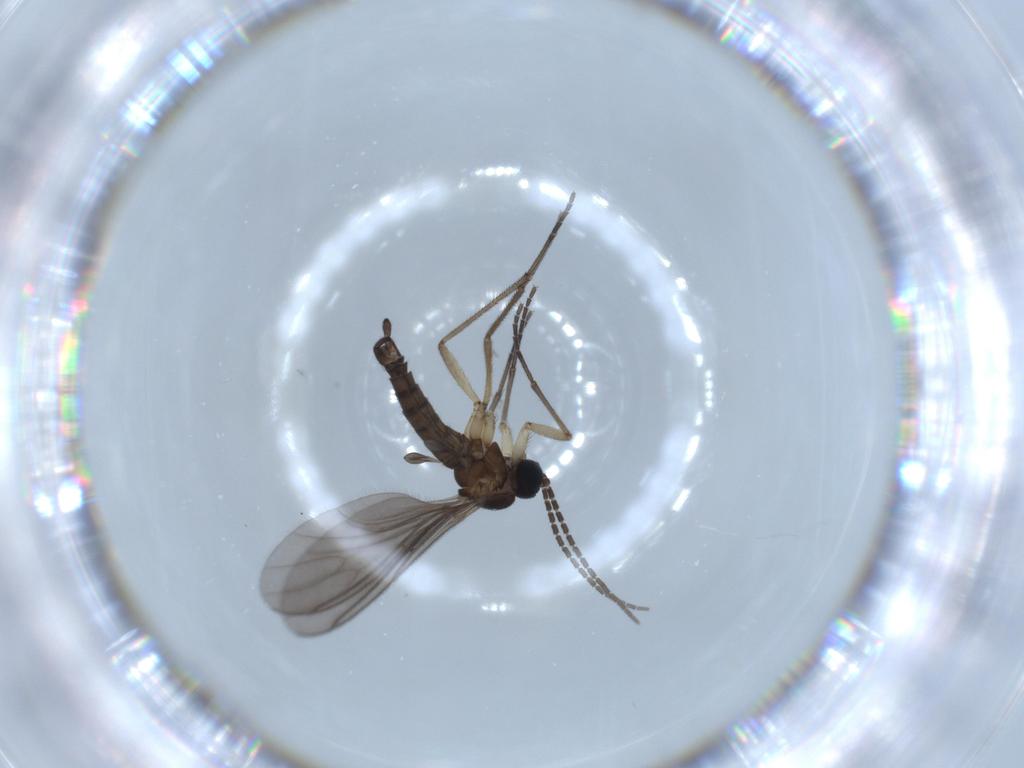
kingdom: Animalia
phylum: Arthropoda
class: Insecta
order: Diptera
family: Sciaridae
